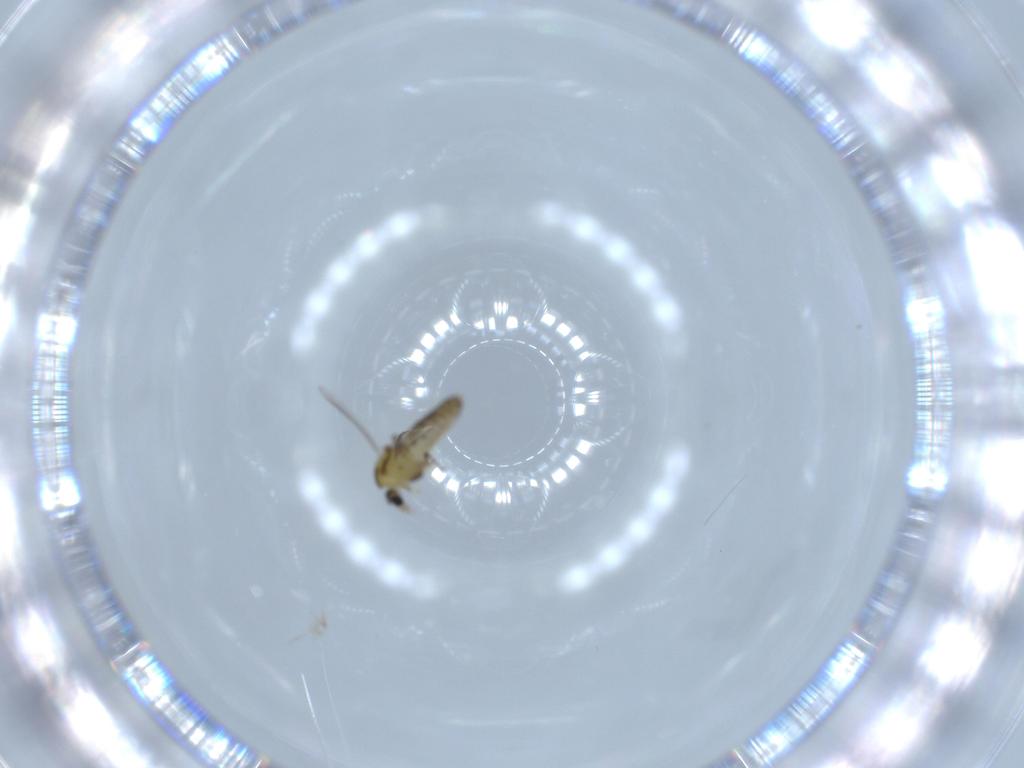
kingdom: Animalia
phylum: Arthropoda
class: Insecta
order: Diptera
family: Chironomidae
